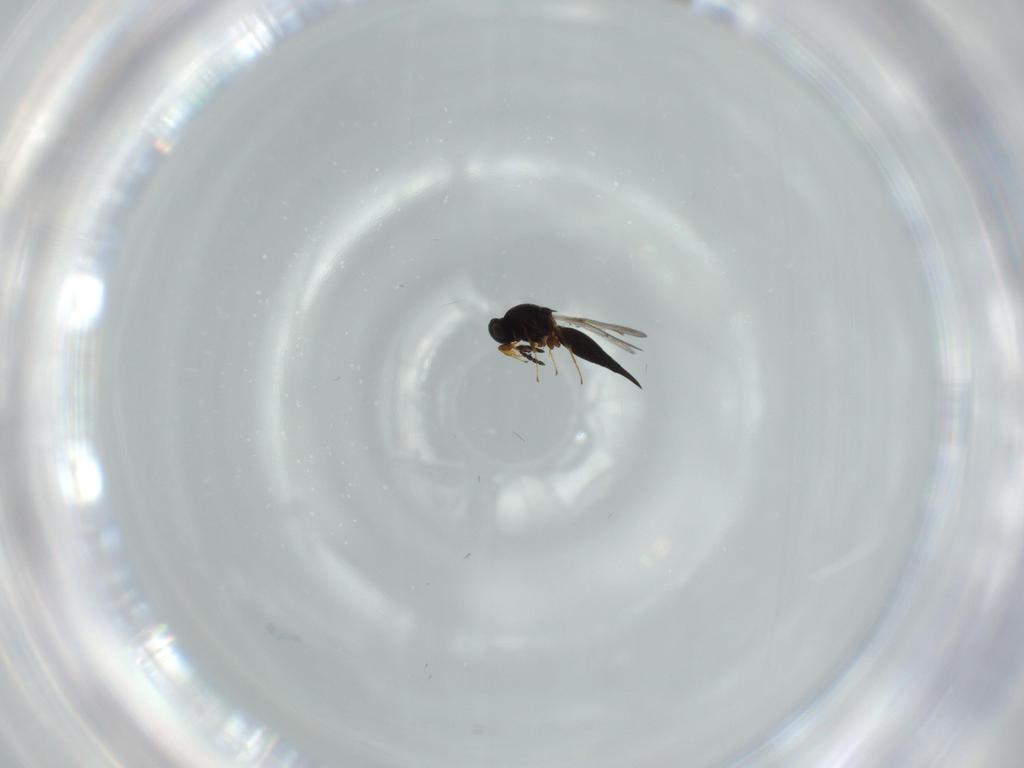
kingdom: Animalia
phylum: Arthropoda
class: Insecta
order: Hymenoptera
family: Platygastridae
